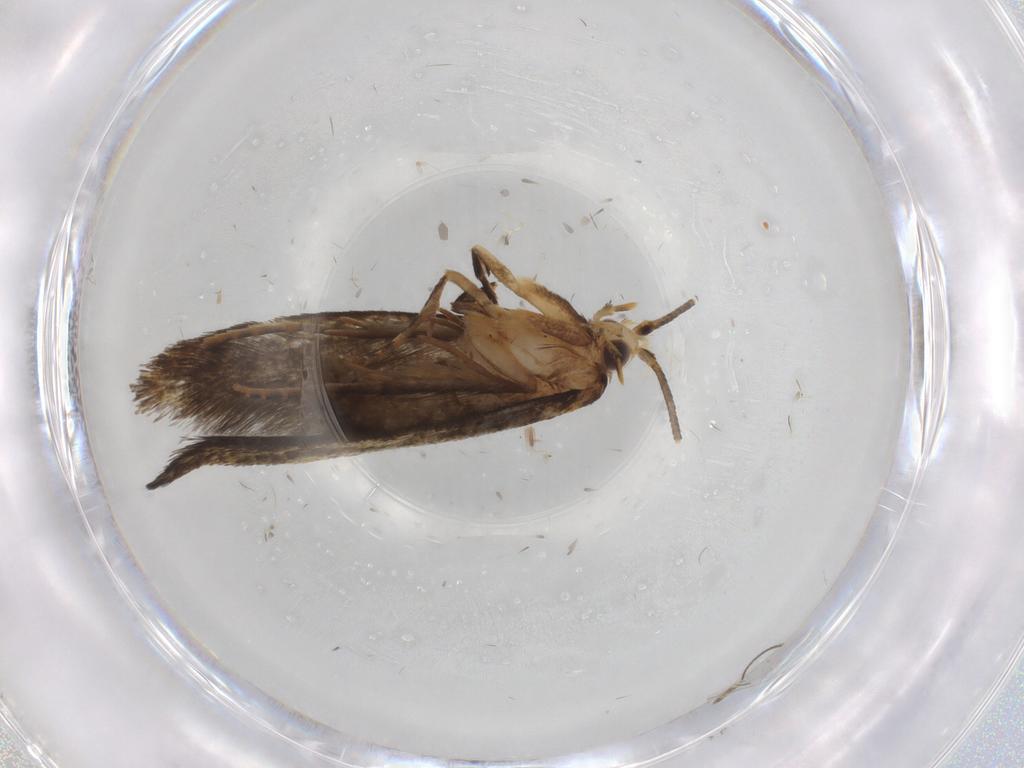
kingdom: Animalia
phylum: Arthropoda
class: Insecta
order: Lepidoptera
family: Tineidae
